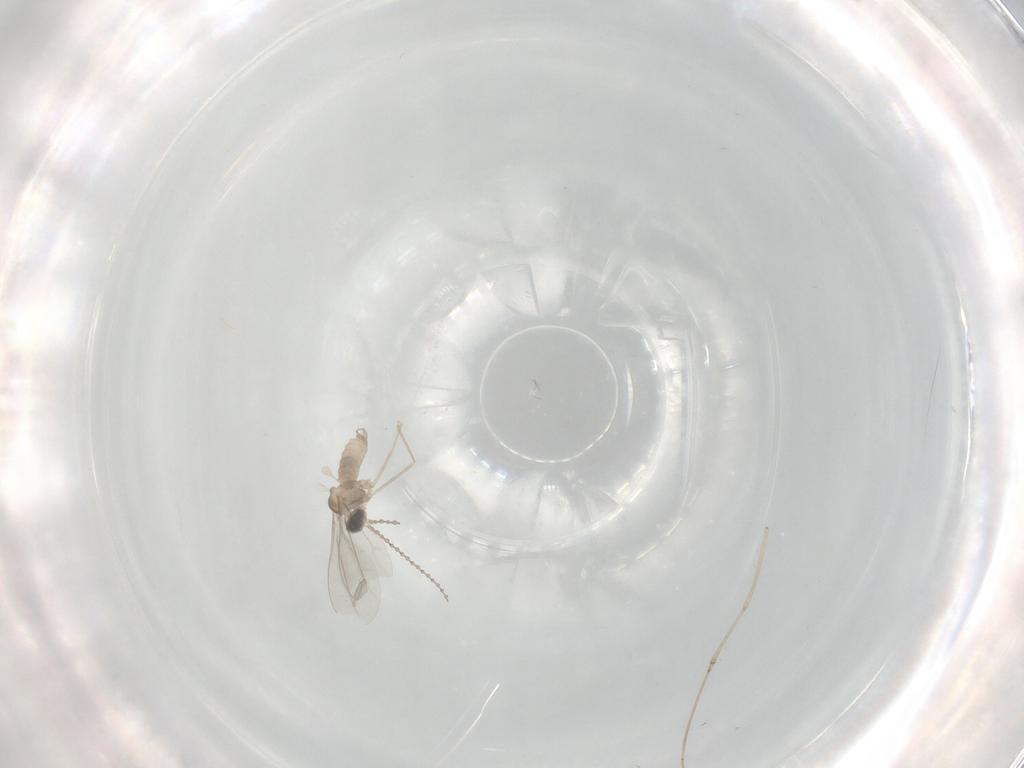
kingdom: Animalia
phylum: Arthropoda
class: Insecta
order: Diptera
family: Cecidomyiidae
